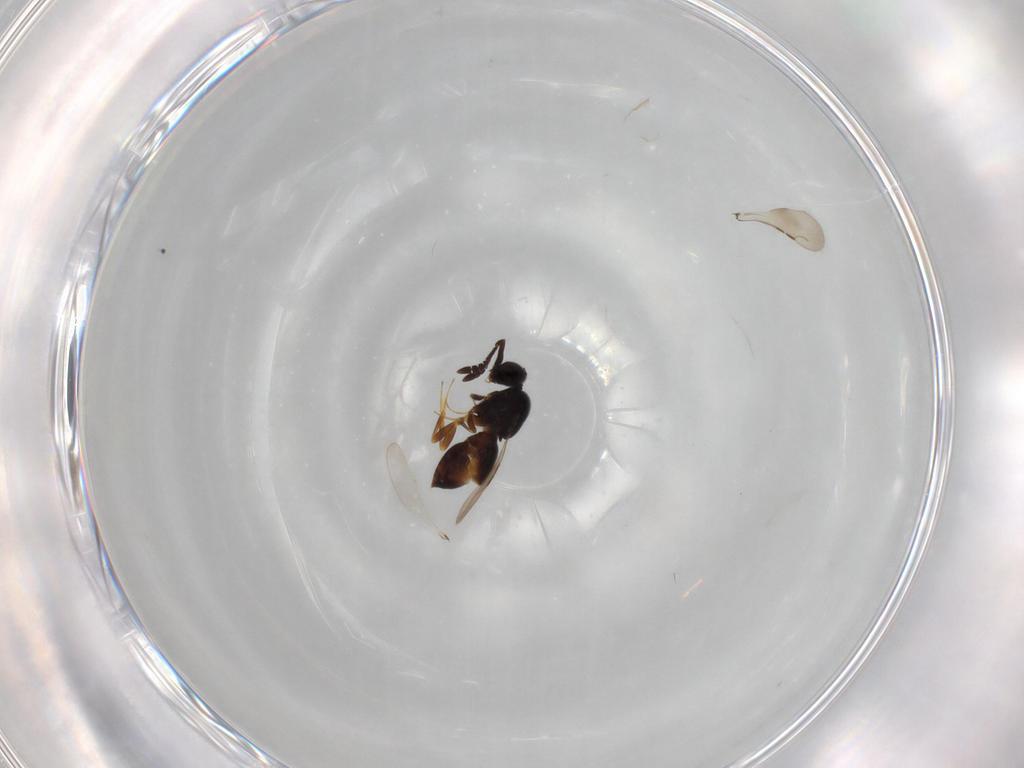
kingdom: Animalia
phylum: Arthropoda
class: Insecta
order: Hymenoptera
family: Ceraphronidae
